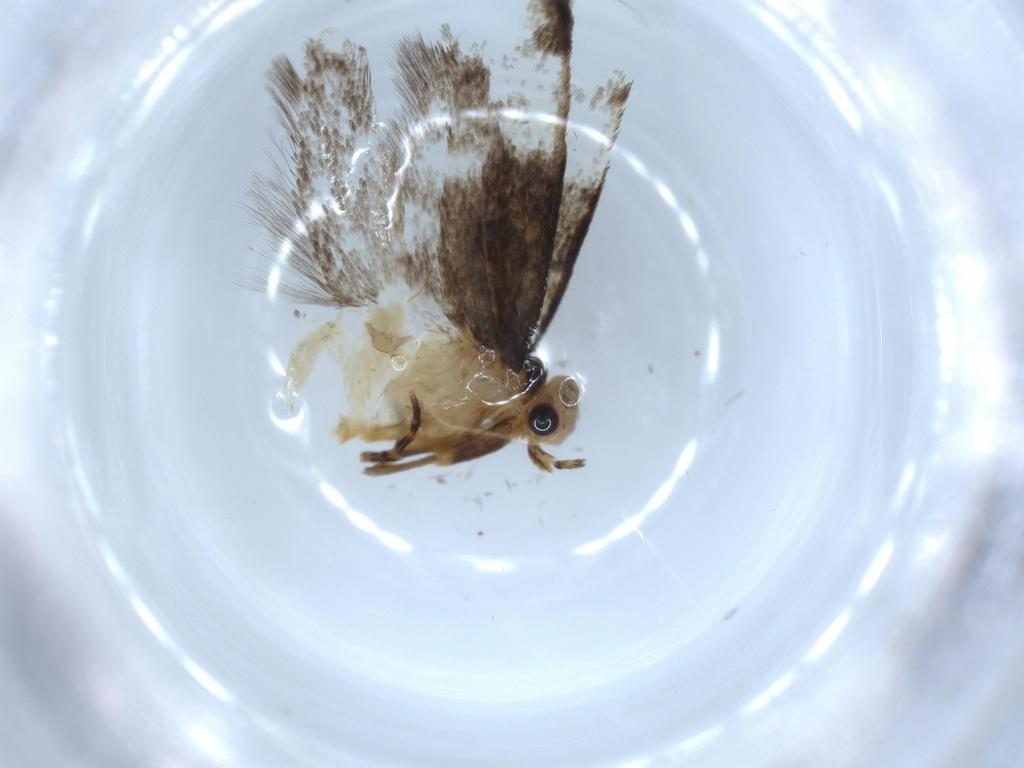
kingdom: Animalia
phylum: Arthropoda
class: Insecta
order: Lepidoptera
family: Tineidae
